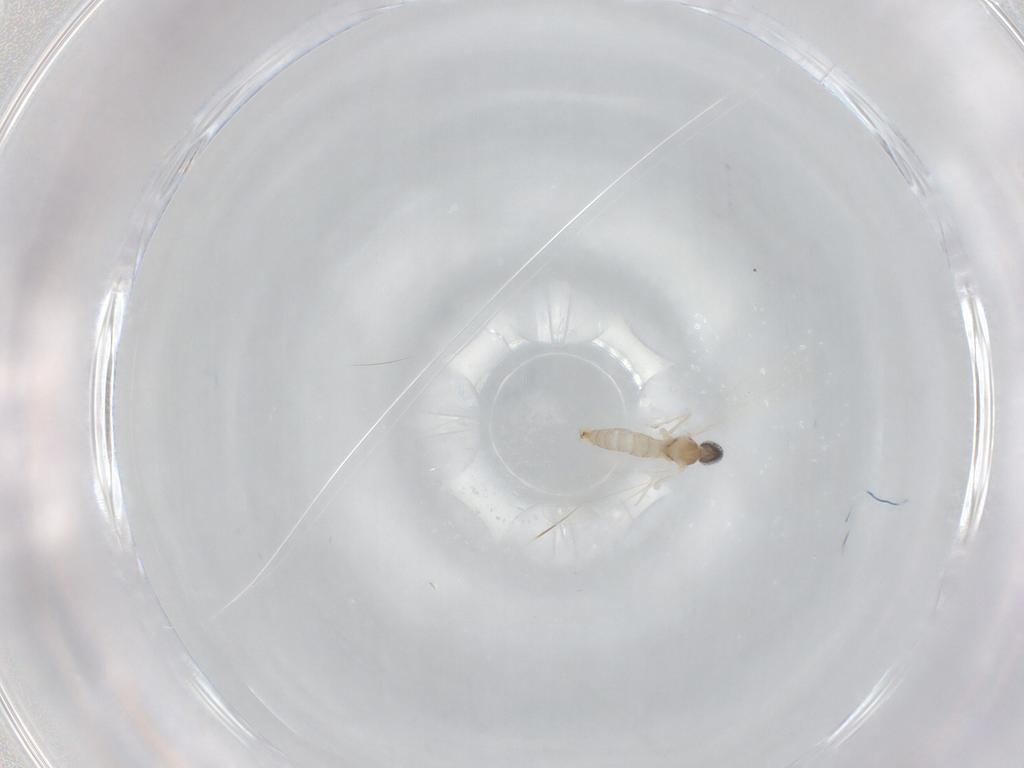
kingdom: Animalia
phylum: Arthropoda
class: Insecta
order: Diptera
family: Cecidomyiidae
